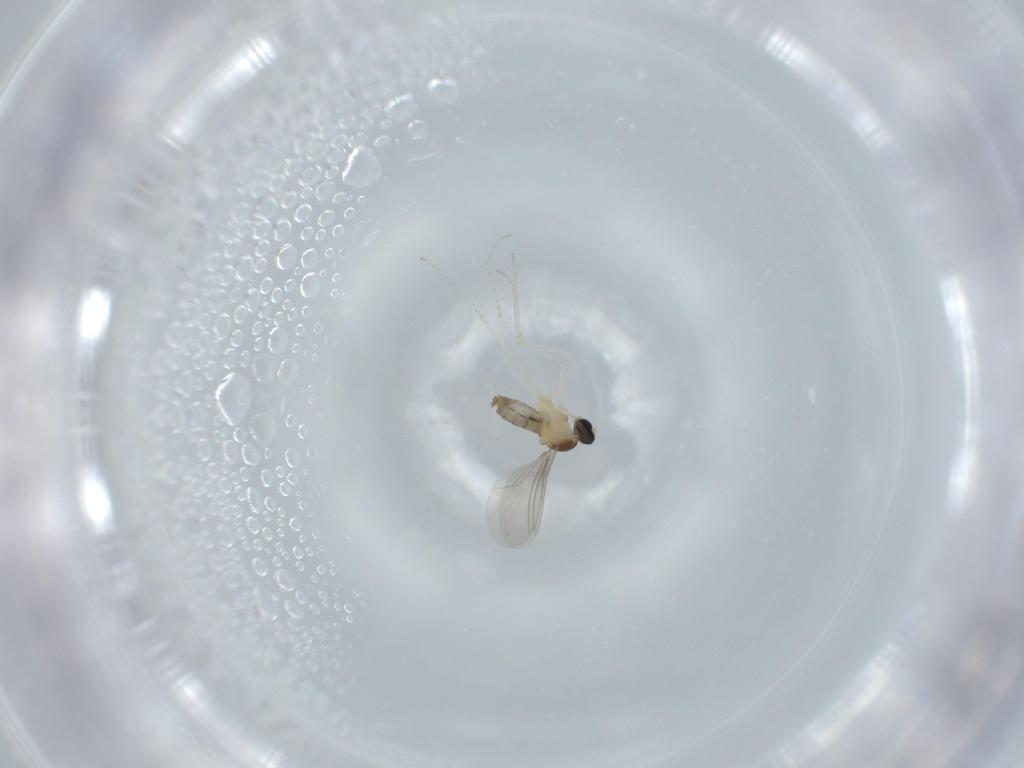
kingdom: Animalia
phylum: Arthropoda
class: Insecta
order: Diptera
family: Cecidomyiidae
